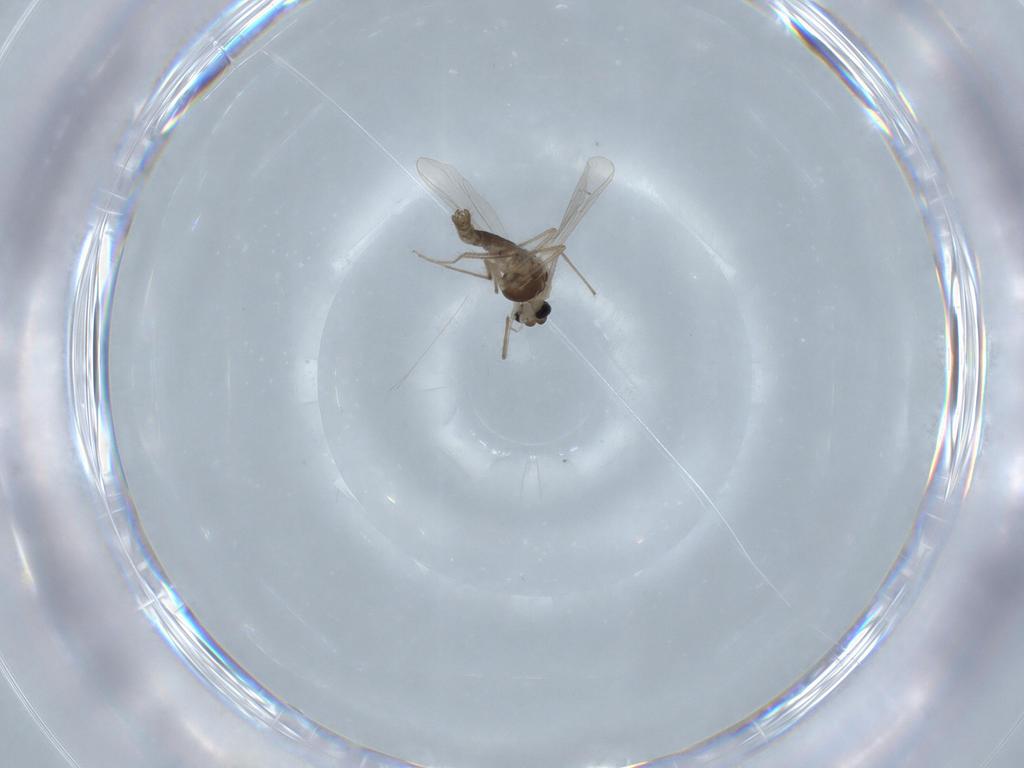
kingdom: Animalia
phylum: Arthropoda
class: Insecta
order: Diptera
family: Chironomidae
